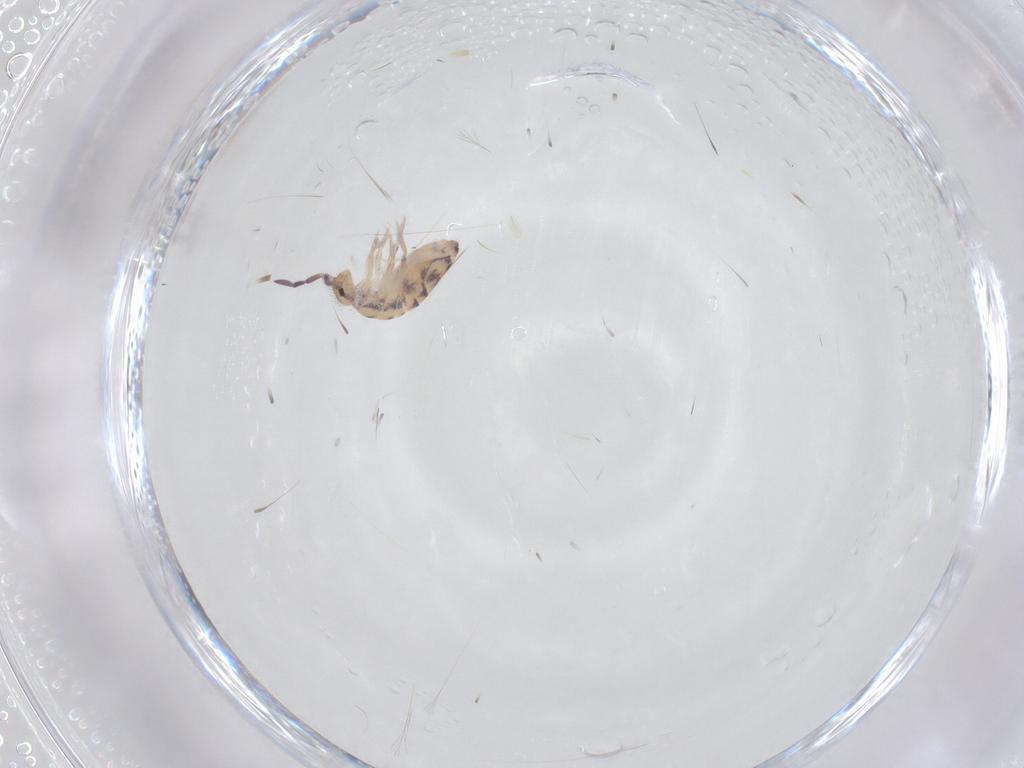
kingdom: Animalia
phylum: Arthropoda
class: Collembola
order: Entomobryomorpha
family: Entomobryidae
